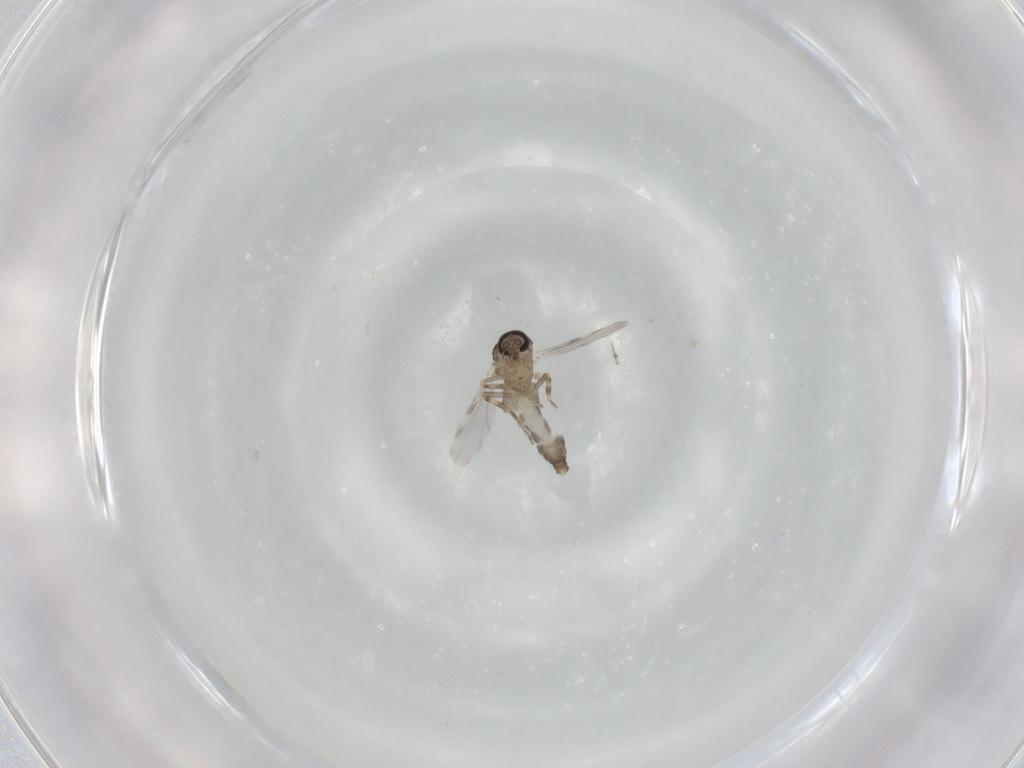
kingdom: Animalia
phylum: Arthropoda
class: Insecta
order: Diptera
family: Ceratopogonidae
